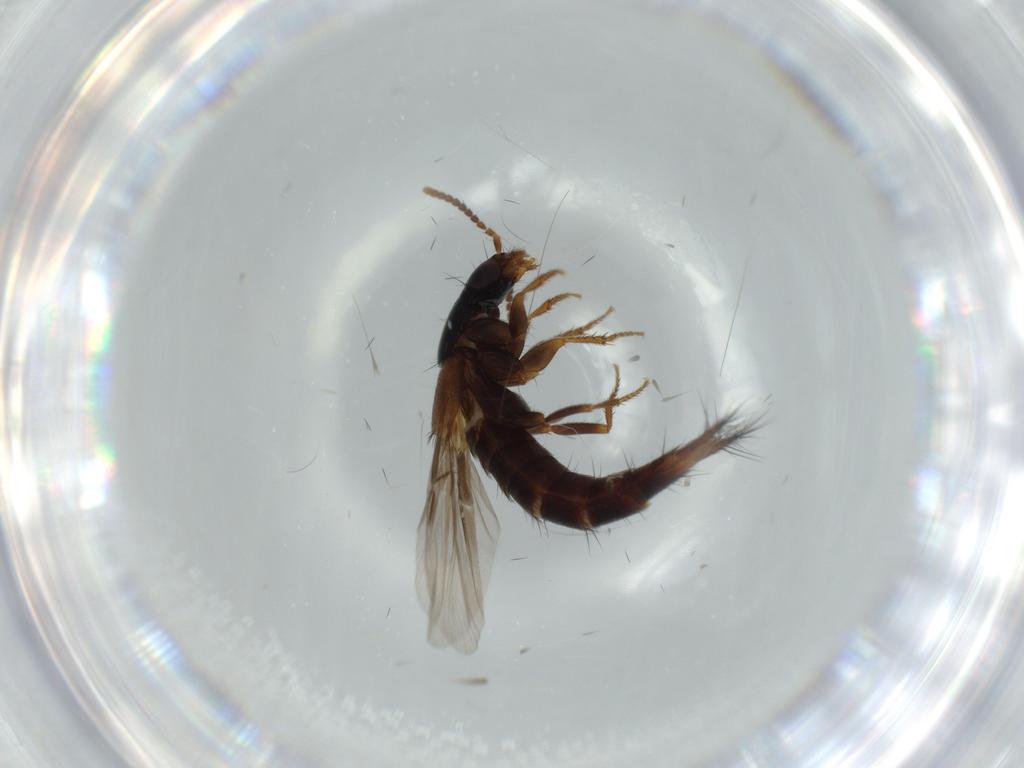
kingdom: Animalia
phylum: Arthropoda
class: Insecta
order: Coleoptera
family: Staphylinidae
